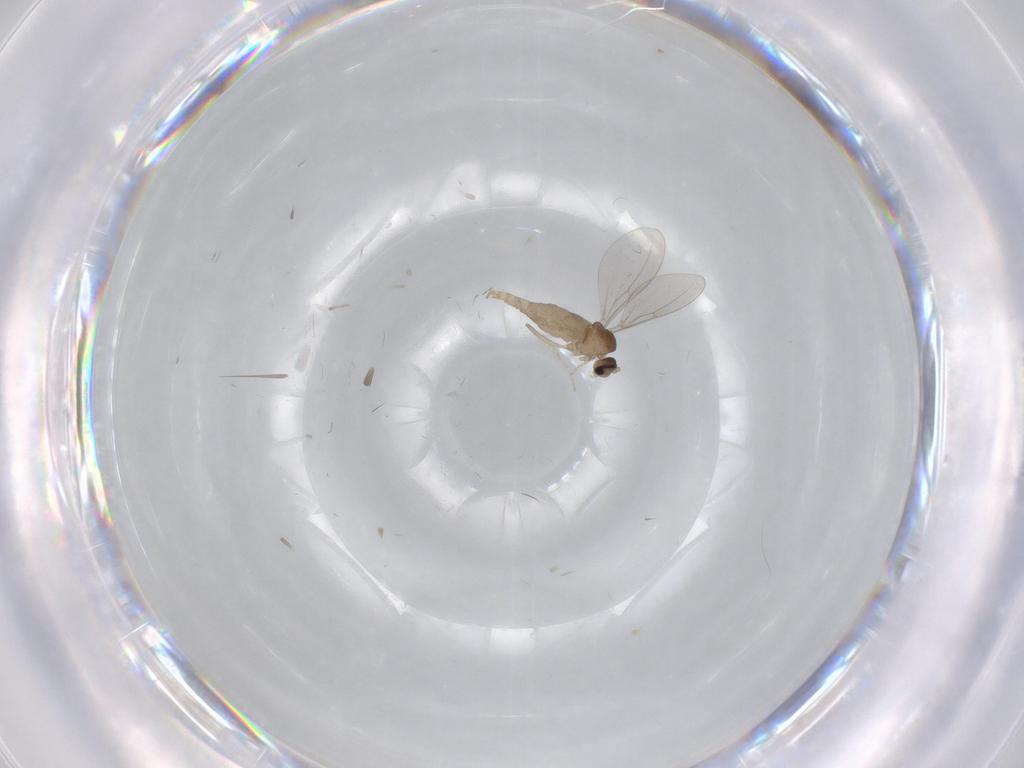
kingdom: Animalia
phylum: Arthropoda
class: Insecta
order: Diptera
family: Limoniidae
